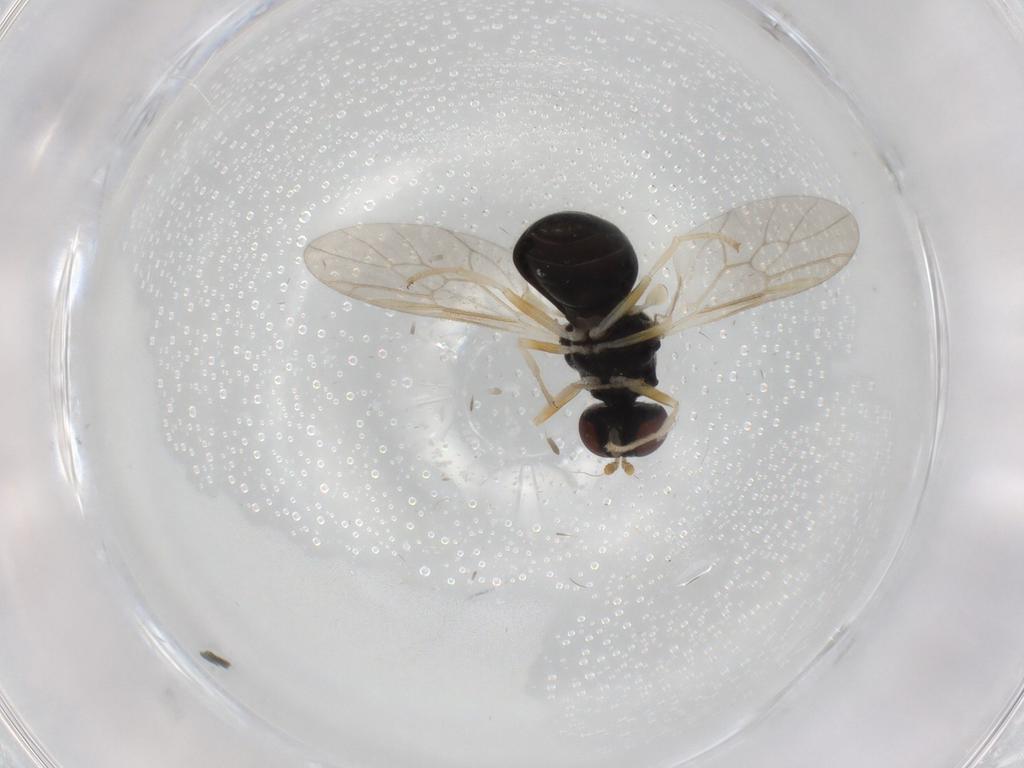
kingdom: Animalia
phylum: Arthropoda
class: Insecta
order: Diptera
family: Stratiomyidae
